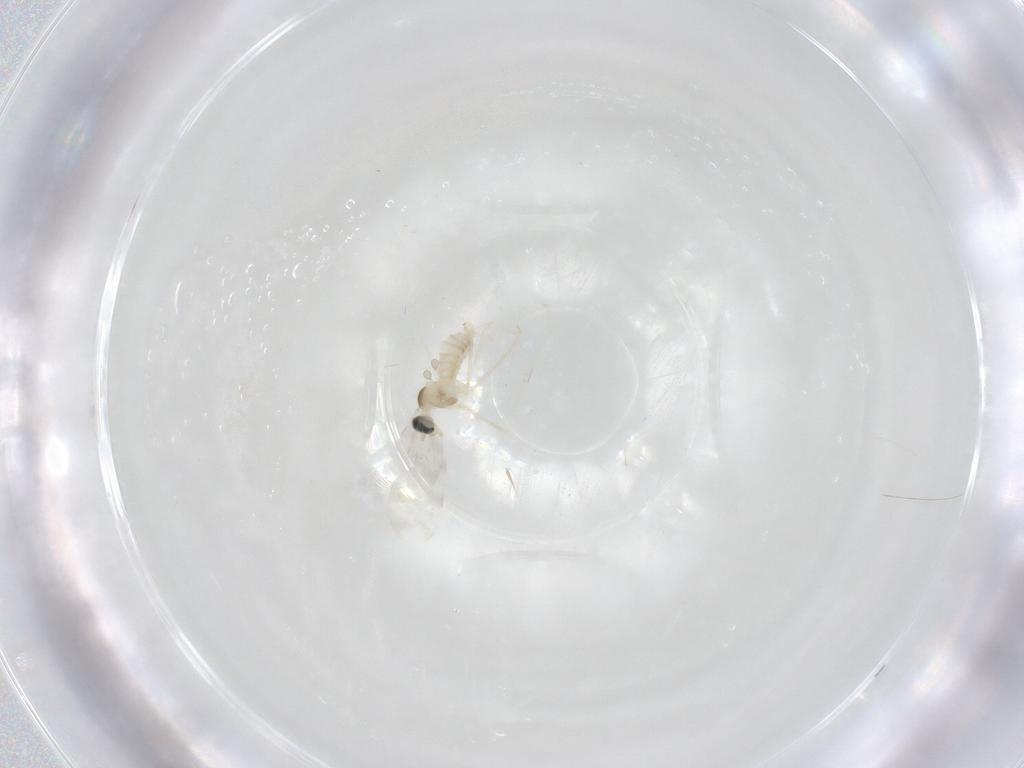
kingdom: Animalia
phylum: Arthropoda
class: Insecta
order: Diptera
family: Cecidomyiidae
